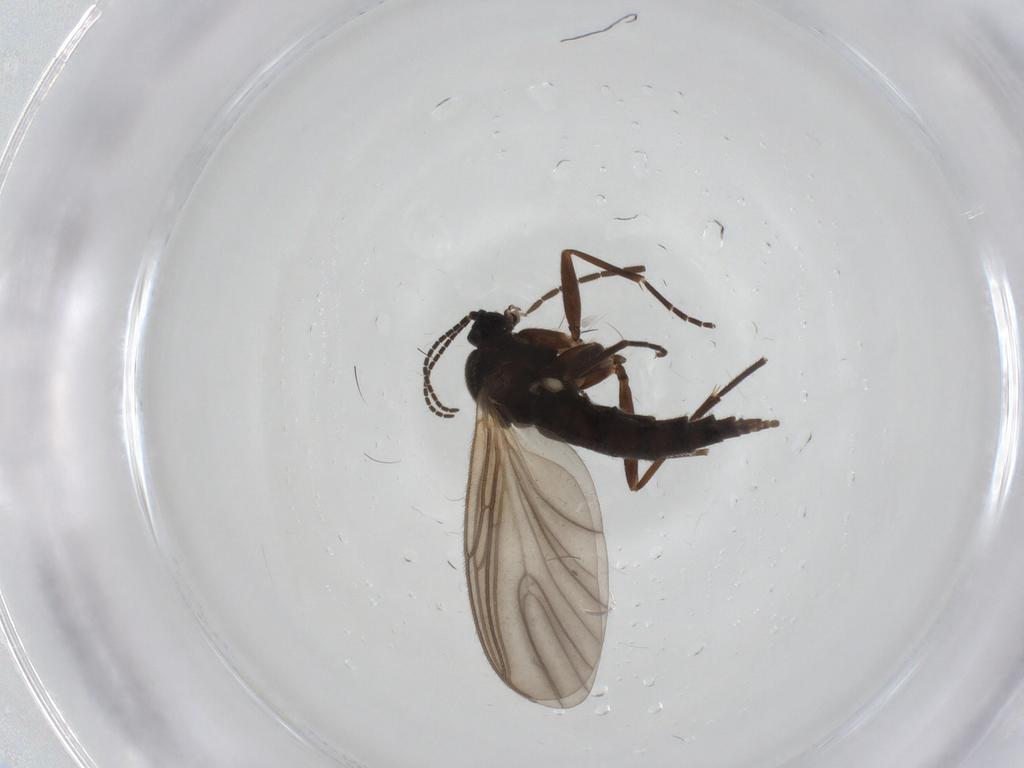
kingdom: Animalia
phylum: Arthropoda
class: Insecta
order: Diptera
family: Sciaridae
